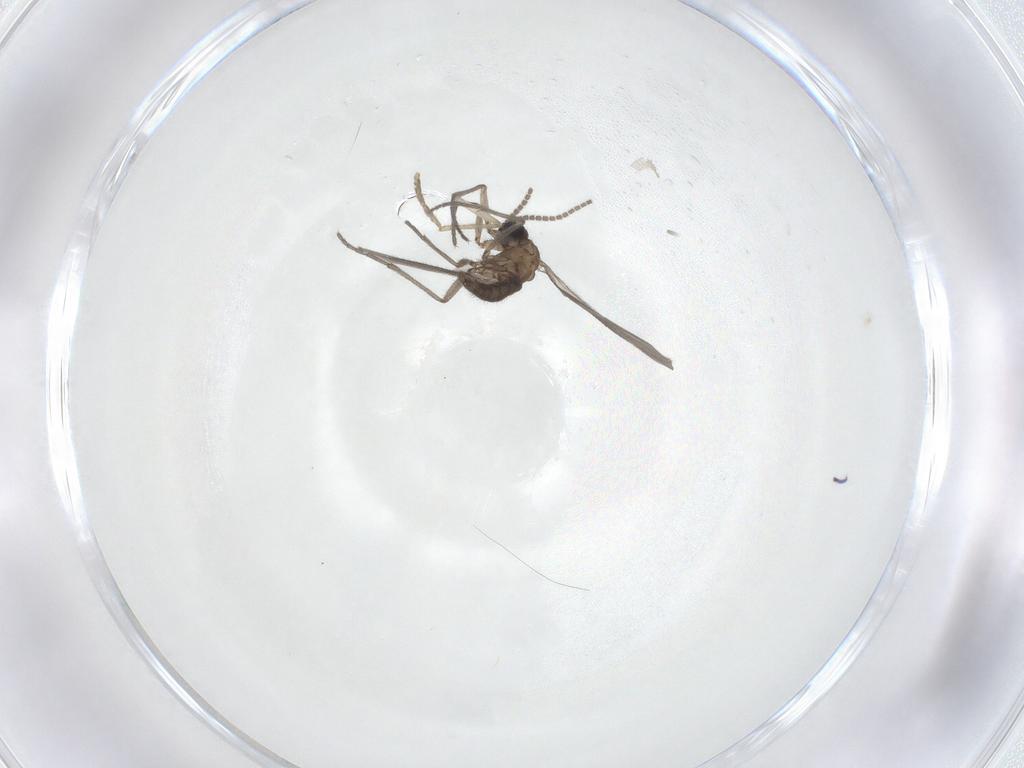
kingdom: Animalia
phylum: Arthropoda
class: Insecta
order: Diptera
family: Sciaridae
